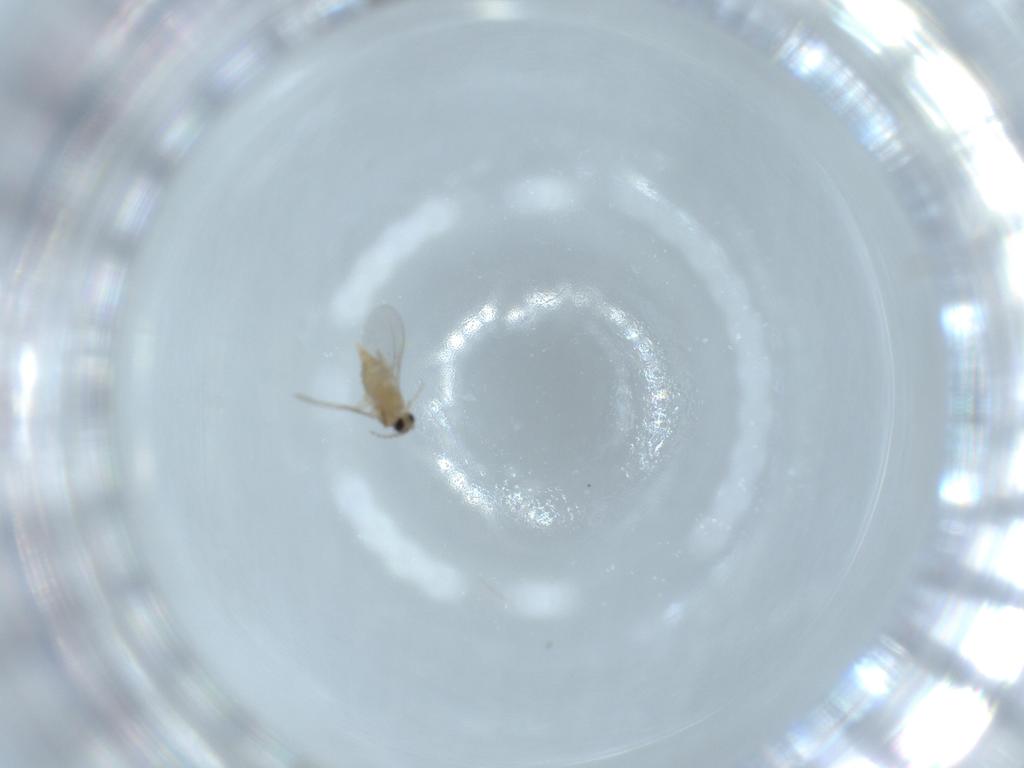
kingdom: Animalia
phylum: Arthropoda
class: Insecta
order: Diptera
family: Cecidomyiidae
